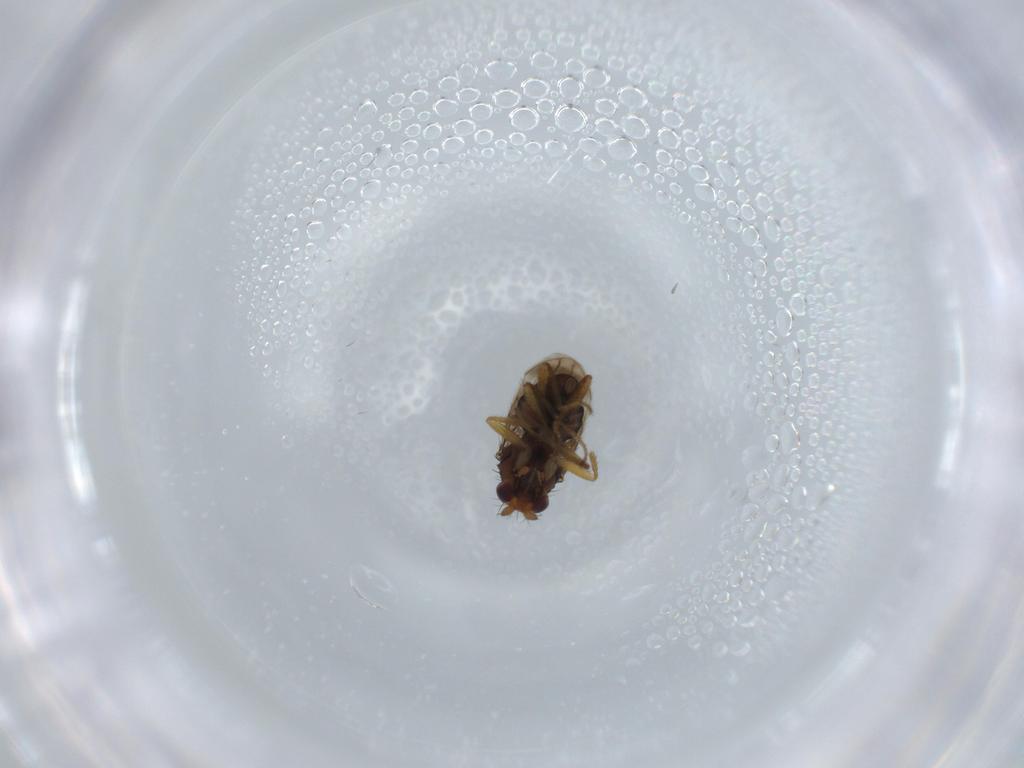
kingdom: Animalia
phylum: Arthropoda
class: Insecta
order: Diptera
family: Sphaeroceridae
